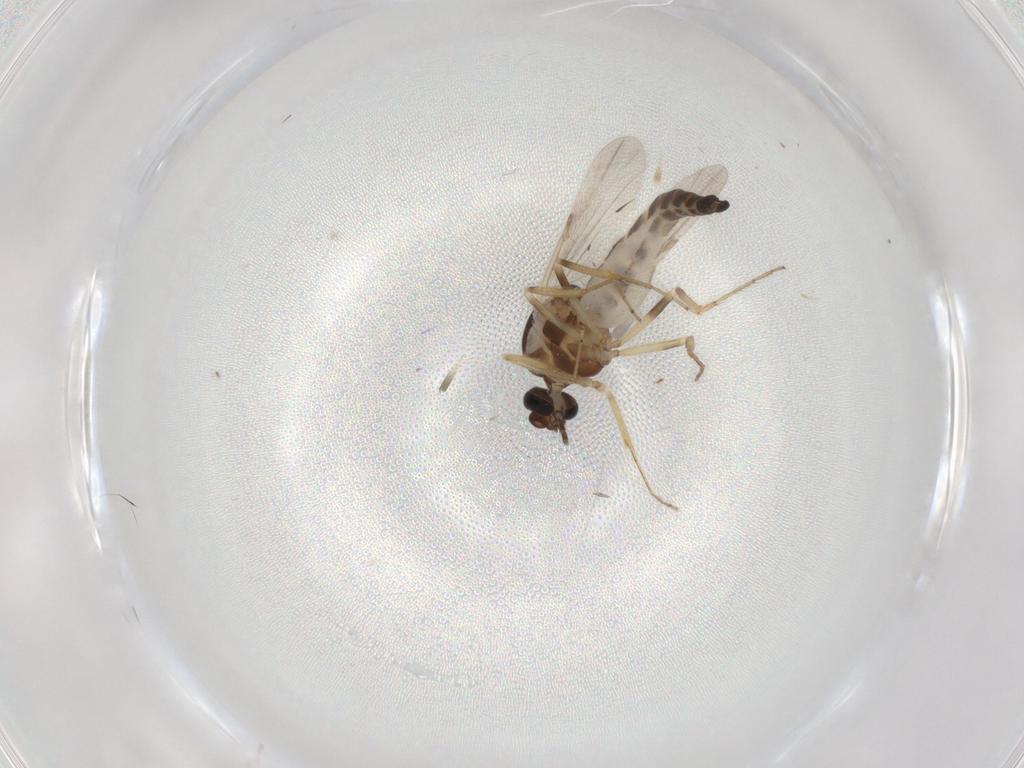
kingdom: Animalia
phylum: Arthropoda
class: Insecta
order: Diptera
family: Ceratopogonidae
